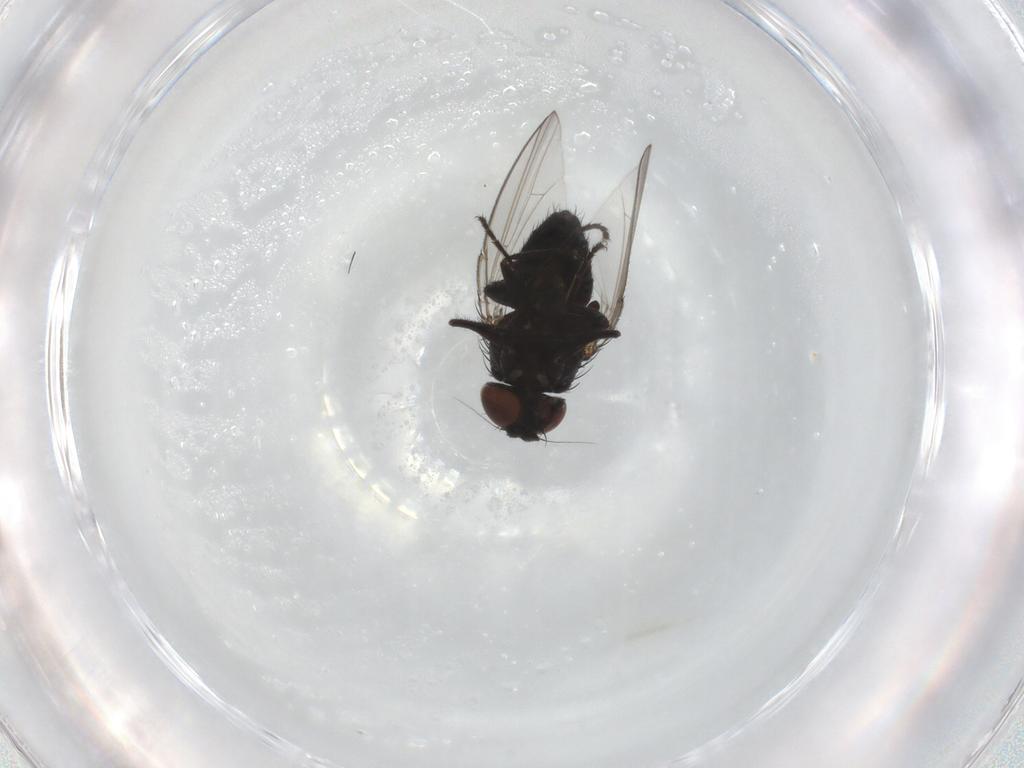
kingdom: Animalia
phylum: Arthropoda
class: Insecta
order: Diptera
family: Milichiidae
